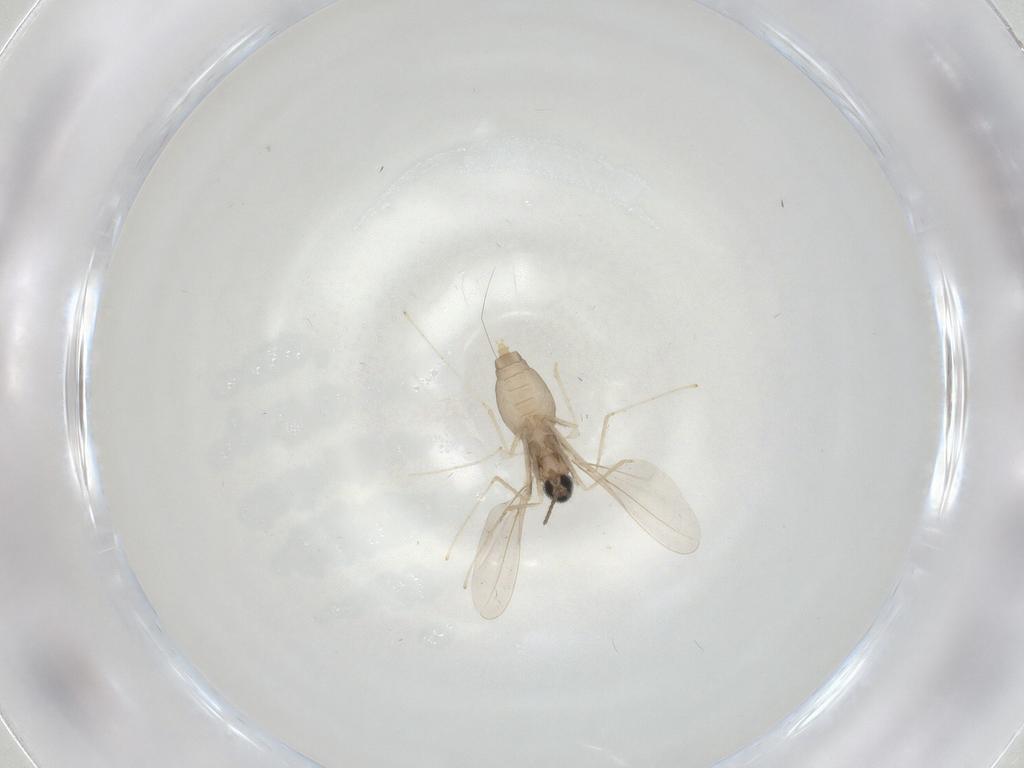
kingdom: Animalia
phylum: Arthropoda
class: Insecta
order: Diptera
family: Cecidomyiidae
